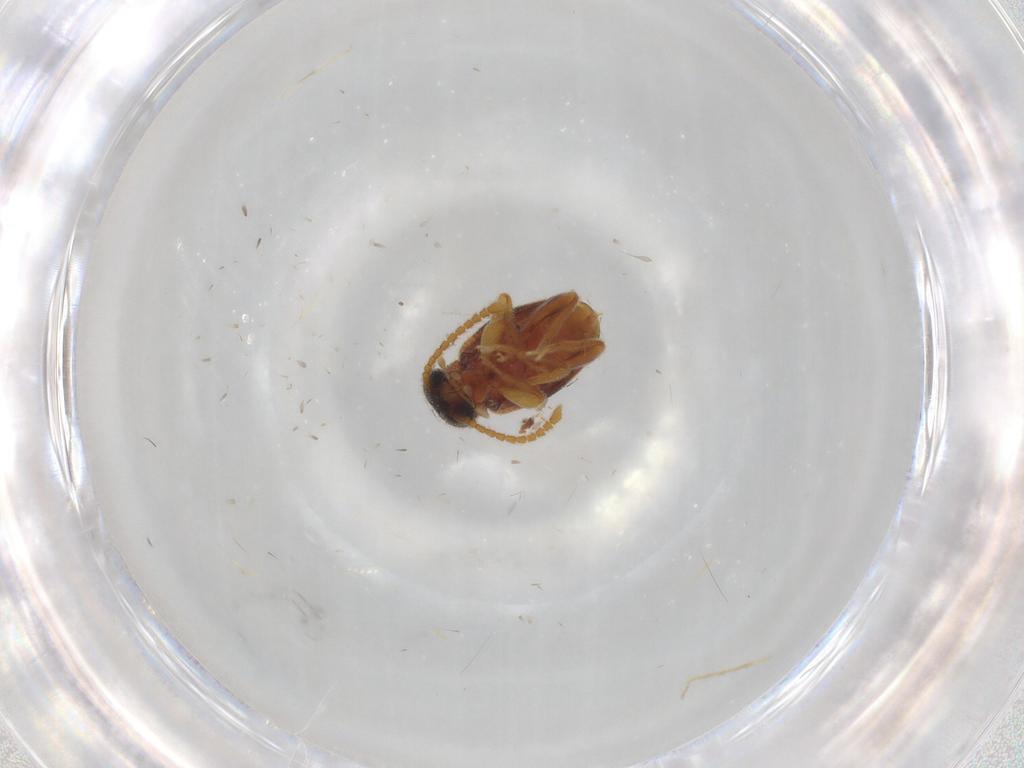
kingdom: Animalia
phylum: Arthropoda
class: Insecta
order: Coleoptera
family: Aderidae
